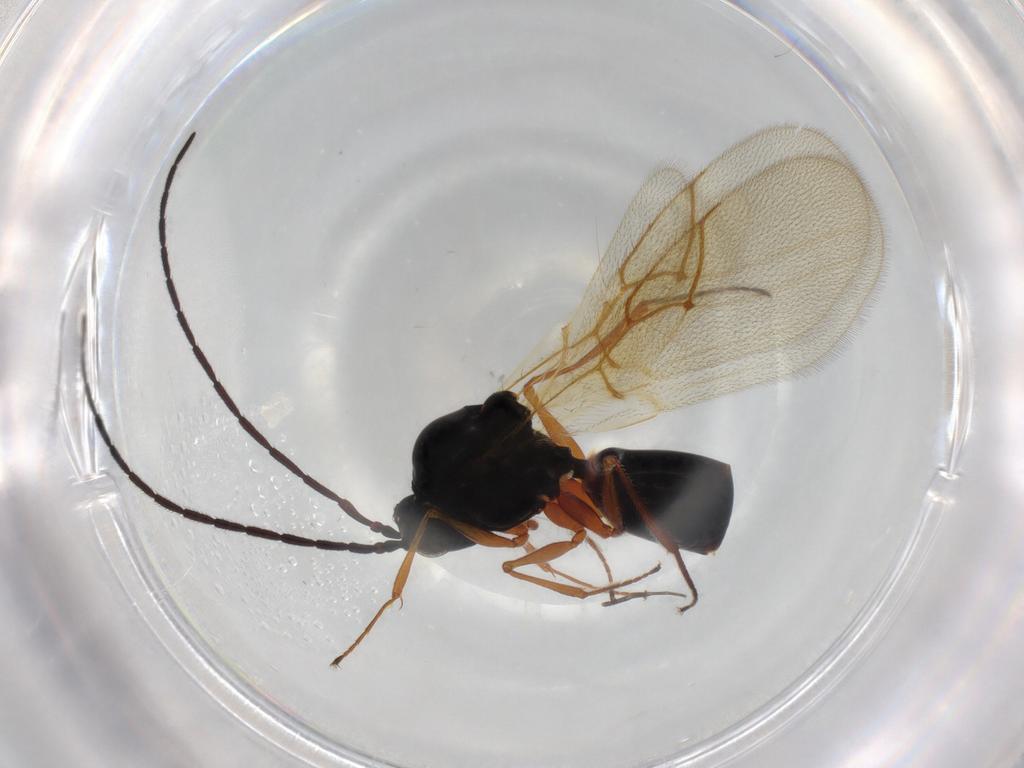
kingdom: Animalia
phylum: Arthropoda
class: Insecta
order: Hymenoptera
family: Figitidae
